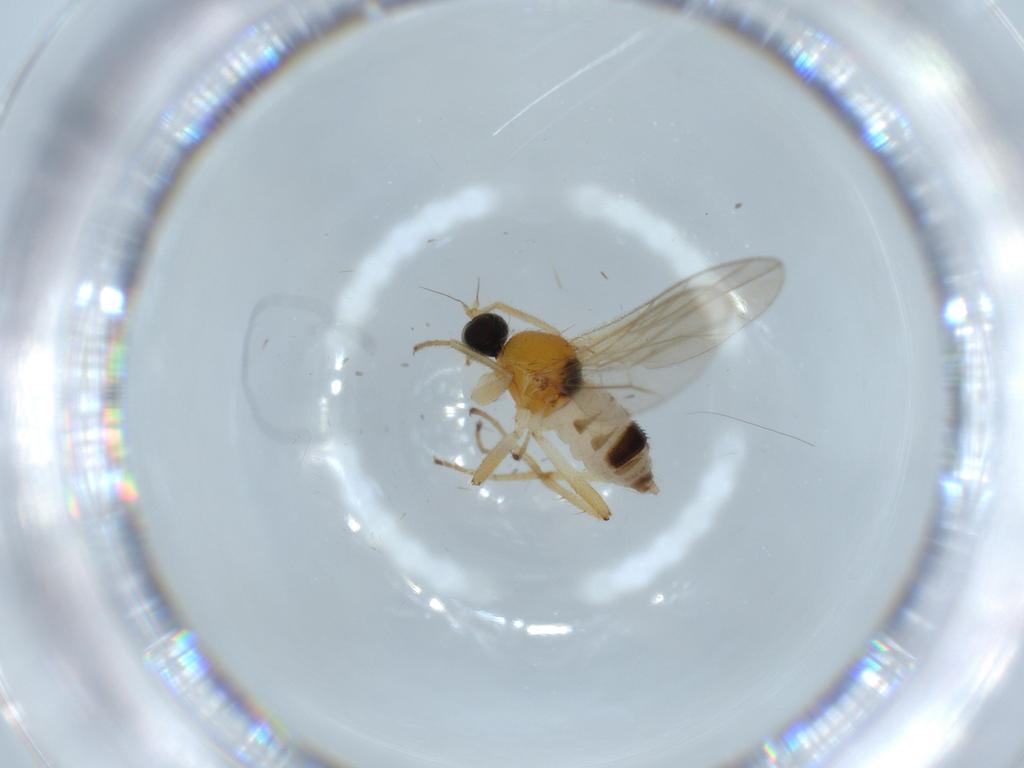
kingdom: Animalia
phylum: Arthropoda
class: Insecta
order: Diptera
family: Hybotidae
